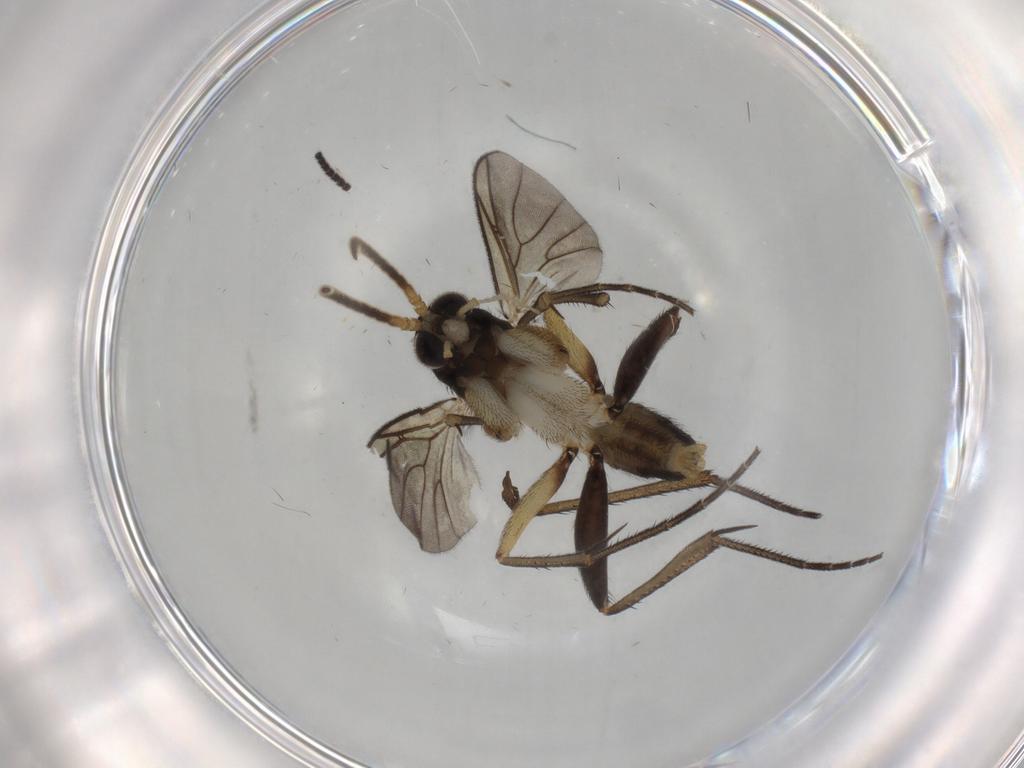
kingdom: Animalia
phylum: Arthropoda
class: Insecta
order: Diptera
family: Mycetophilidae
